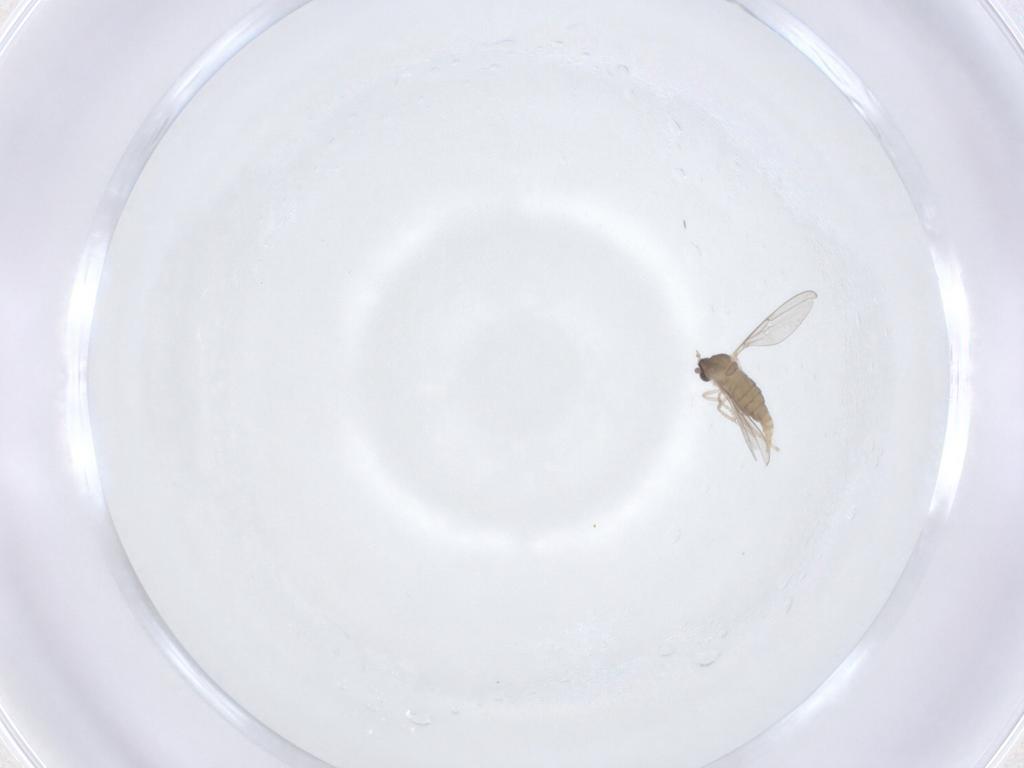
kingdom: Animalia
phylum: Arthropoda
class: Insecta
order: Diptera
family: Cecidomyiidae
